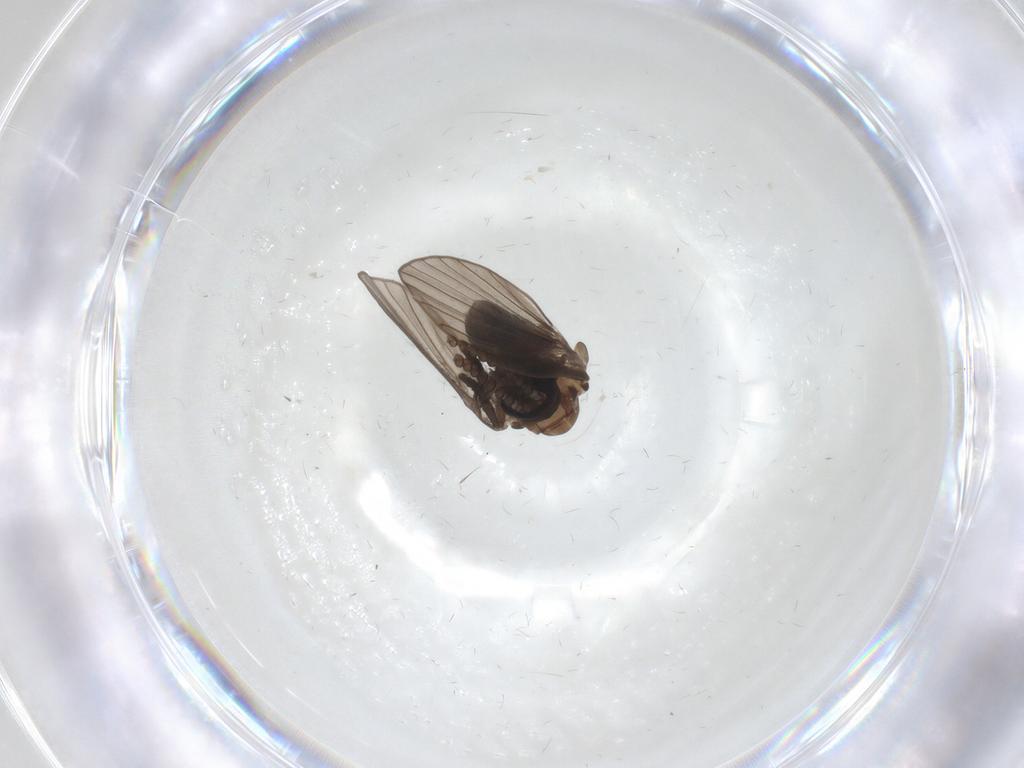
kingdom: Animalia
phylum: Arthropoda
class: Insecta
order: Diptera
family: Psychodidae
